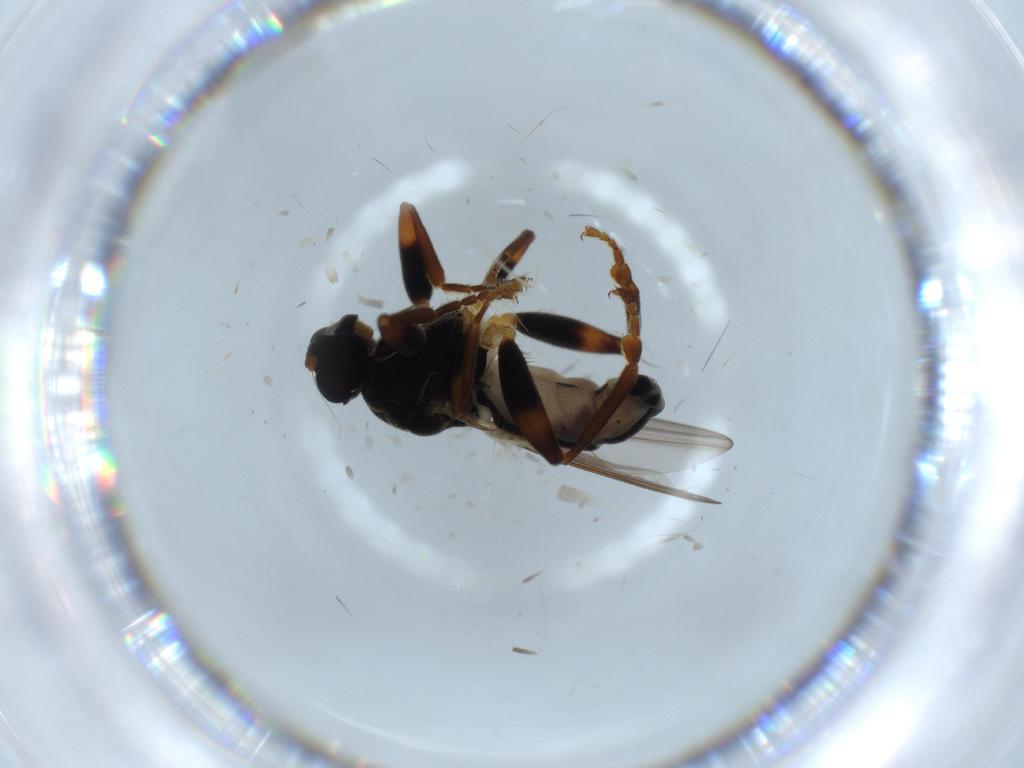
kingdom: Animalia
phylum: Arthropoda
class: Insecta
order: Diptera
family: Sphaeroceridae
